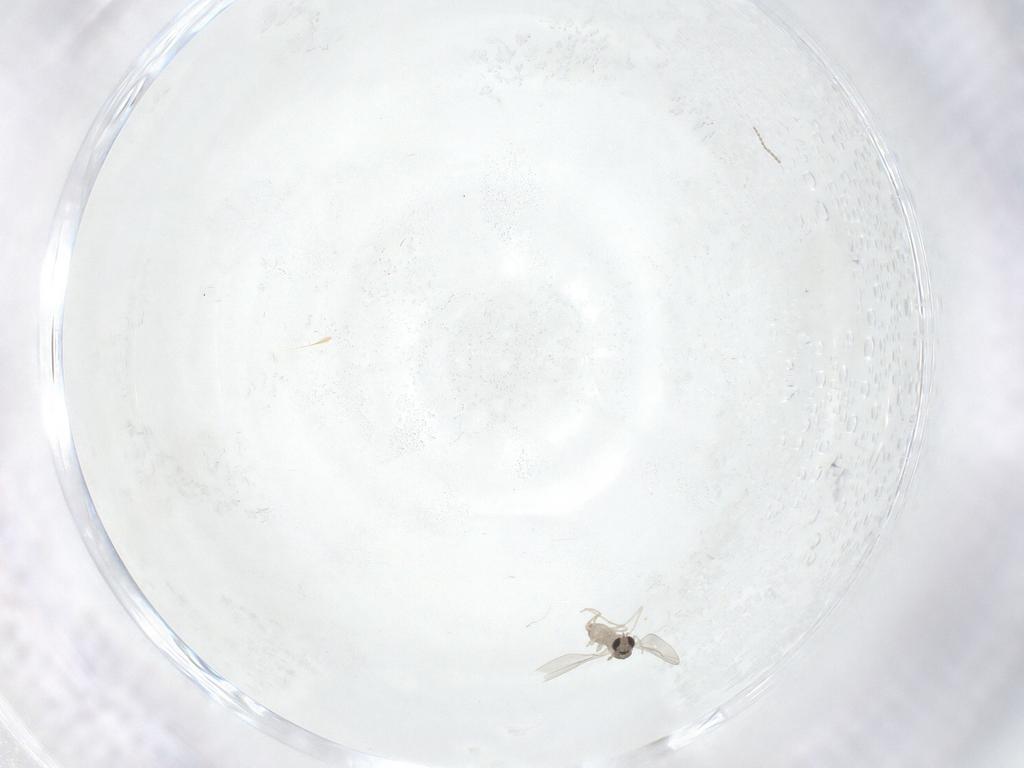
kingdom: Animalia
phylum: Arthropoda
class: Insecta
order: Diptera
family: Cecidomyiidae
